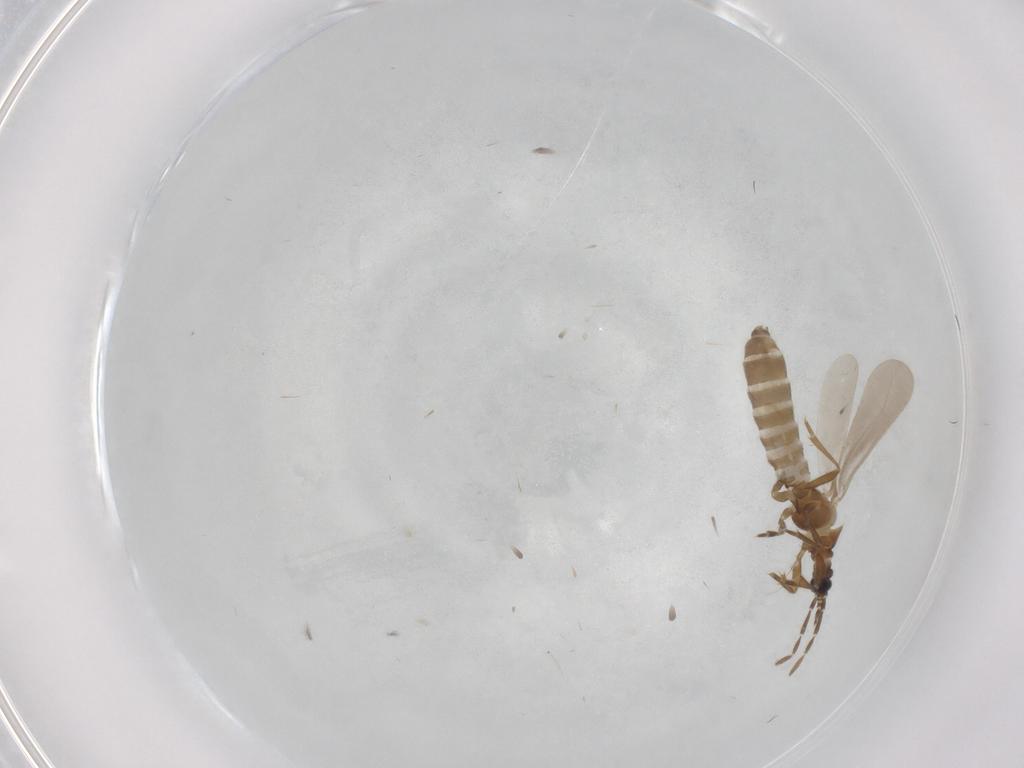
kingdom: Animalia
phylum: Arthropoda
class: Insecta
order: Hemiptera
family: Enicocephalidae
